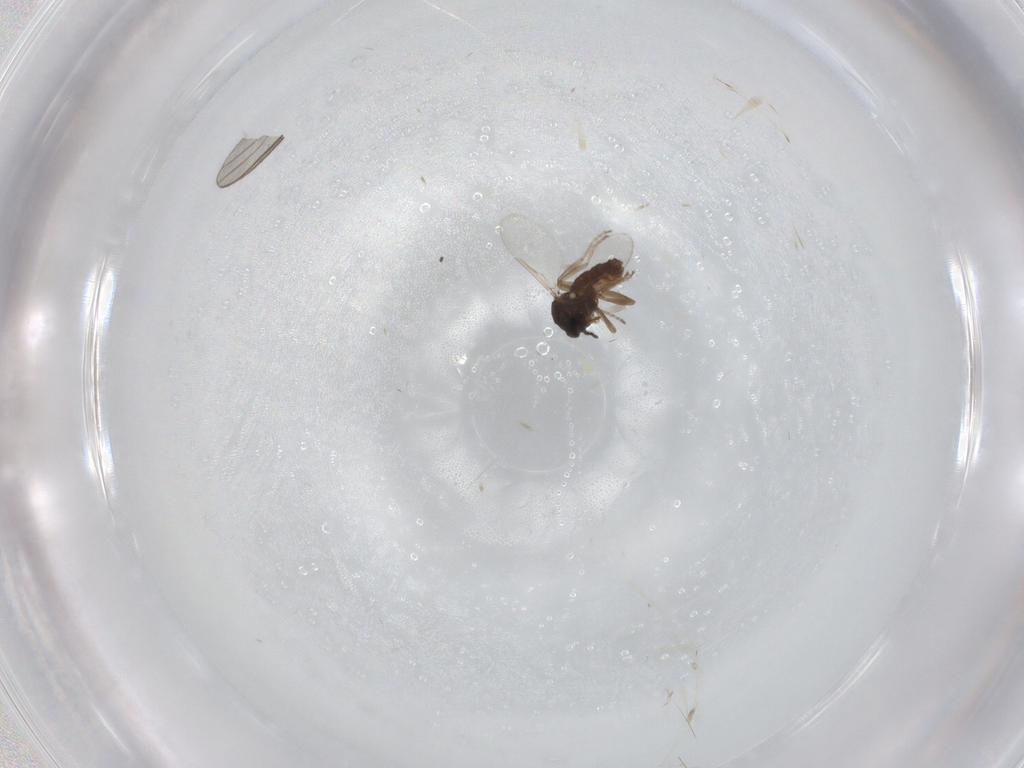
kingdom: Animalia
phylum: Arthropoda
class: Insecta
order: Diptera
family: Ceratopogonidae
